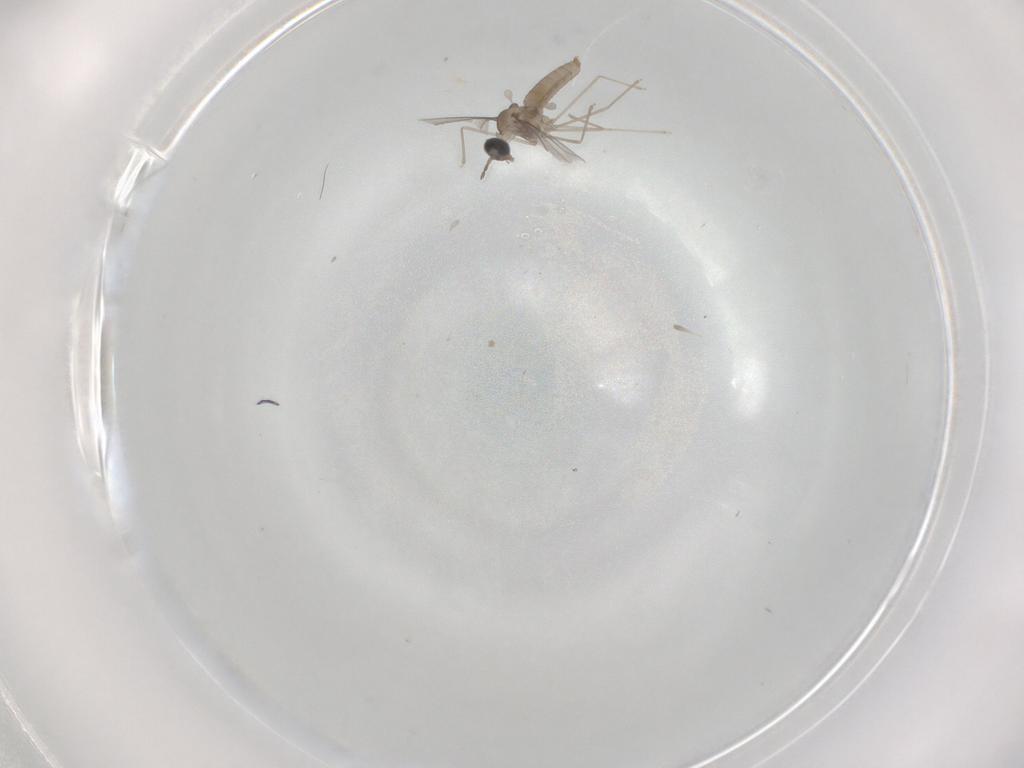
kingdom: Animalia
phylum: Arthropoda
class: Insecta
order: Diptera
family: Cecidomyiidae
